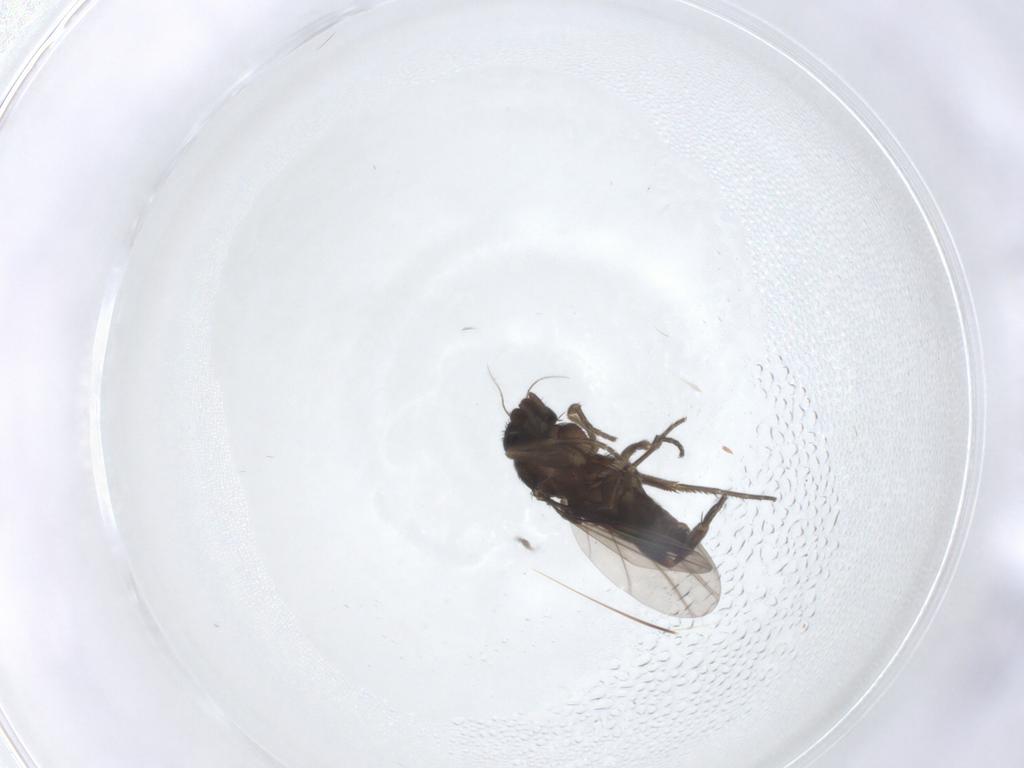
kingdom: Animalia
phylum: Arthropoda
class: Insecta
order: Diptera
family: Phoridae
